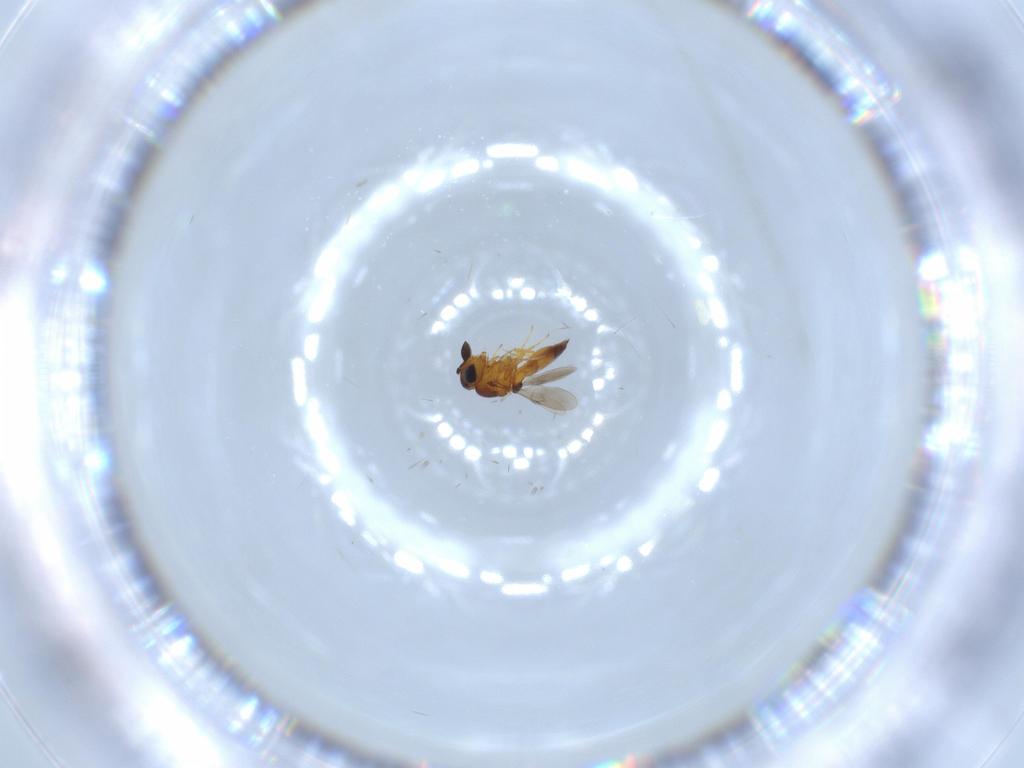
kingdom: Animalia
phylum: Arthropoda
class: Insecta
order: Hymenoptera
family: Scelionidae
